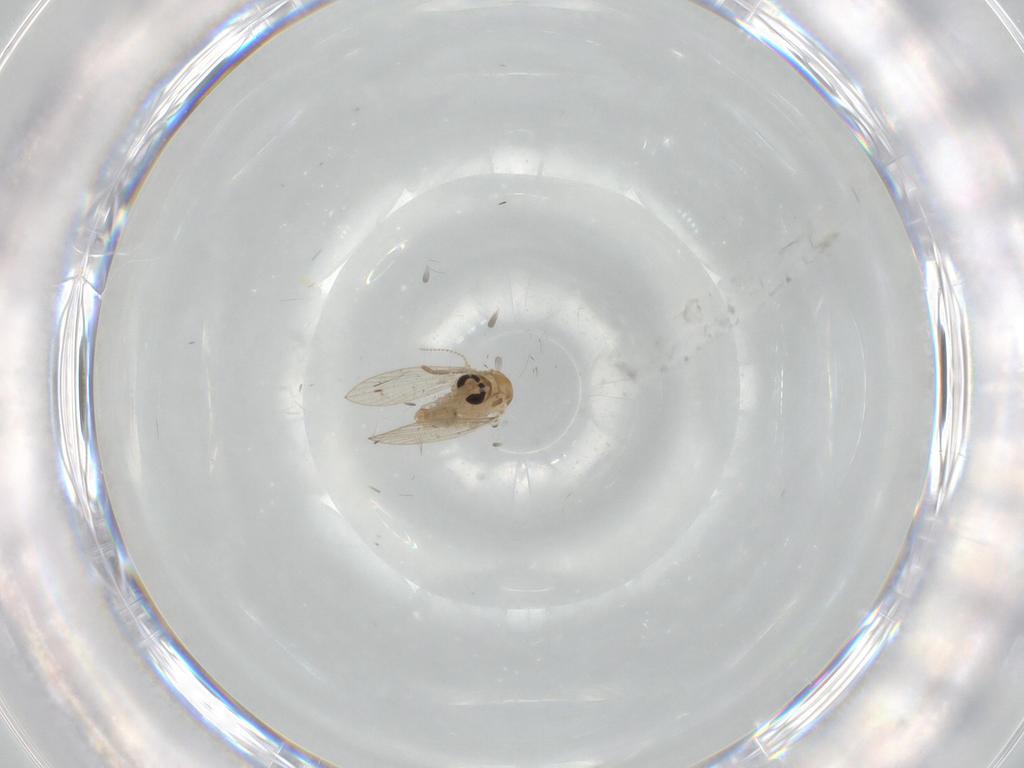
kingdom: Animalia
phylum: Arthropoda
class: Insecta
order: Diptera
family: Psychodidae
